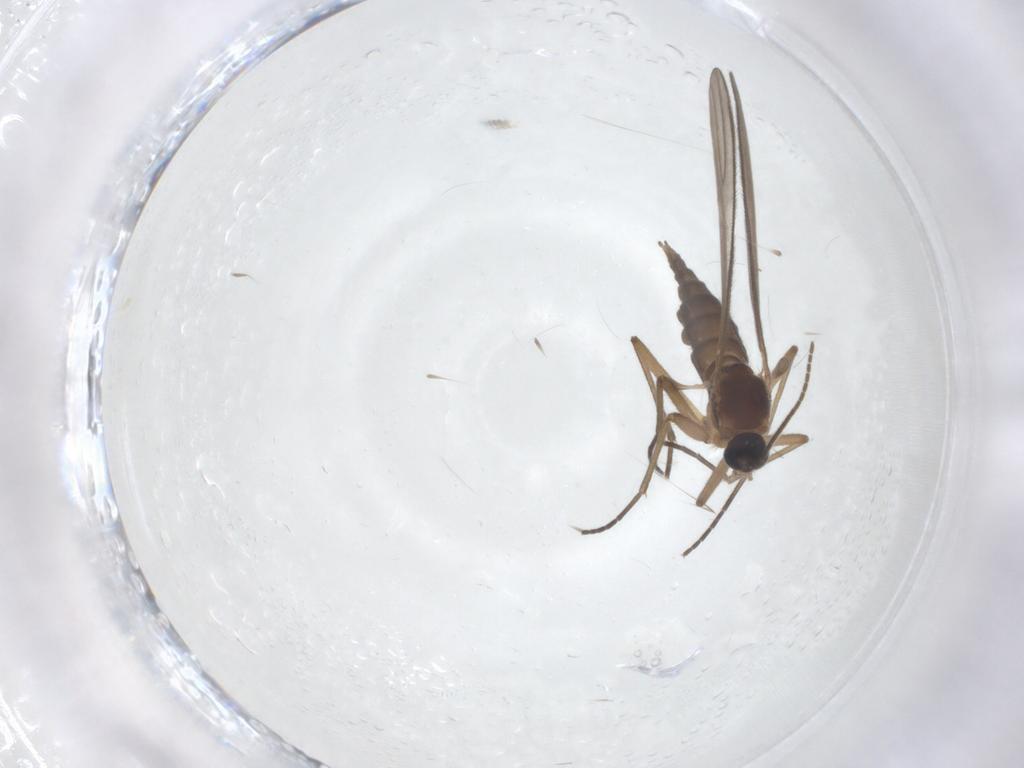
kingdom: Animalia
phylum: Arthropoda
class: Insecta
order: Diptera
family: Sciaridae
